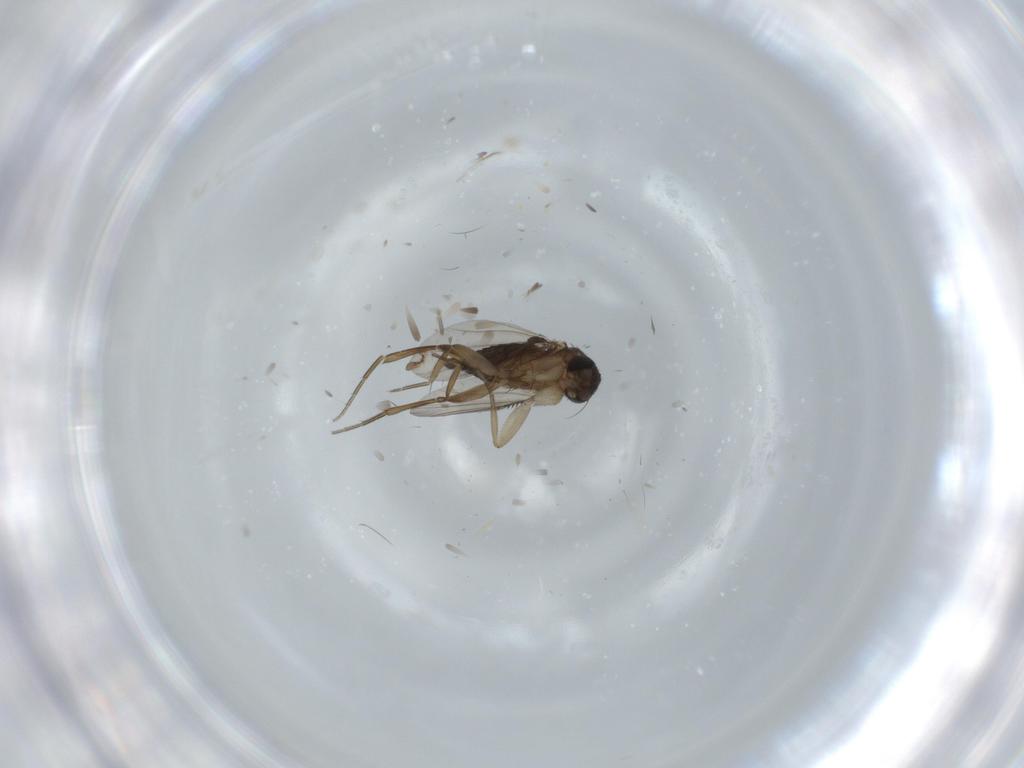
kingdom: Animalia
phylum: Arthropoda
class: Insecta
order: Diptera
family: Phoridae
